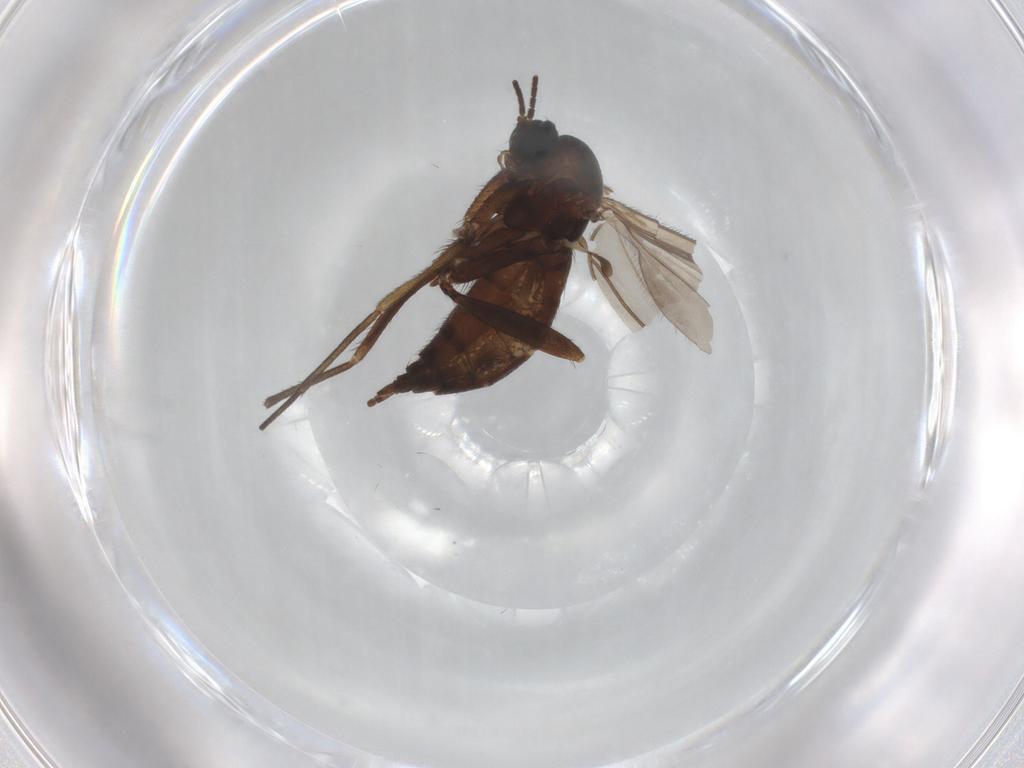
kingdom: Animalia
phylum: Arthropoda
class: Insecta
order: Diptera
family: Sciaridae
